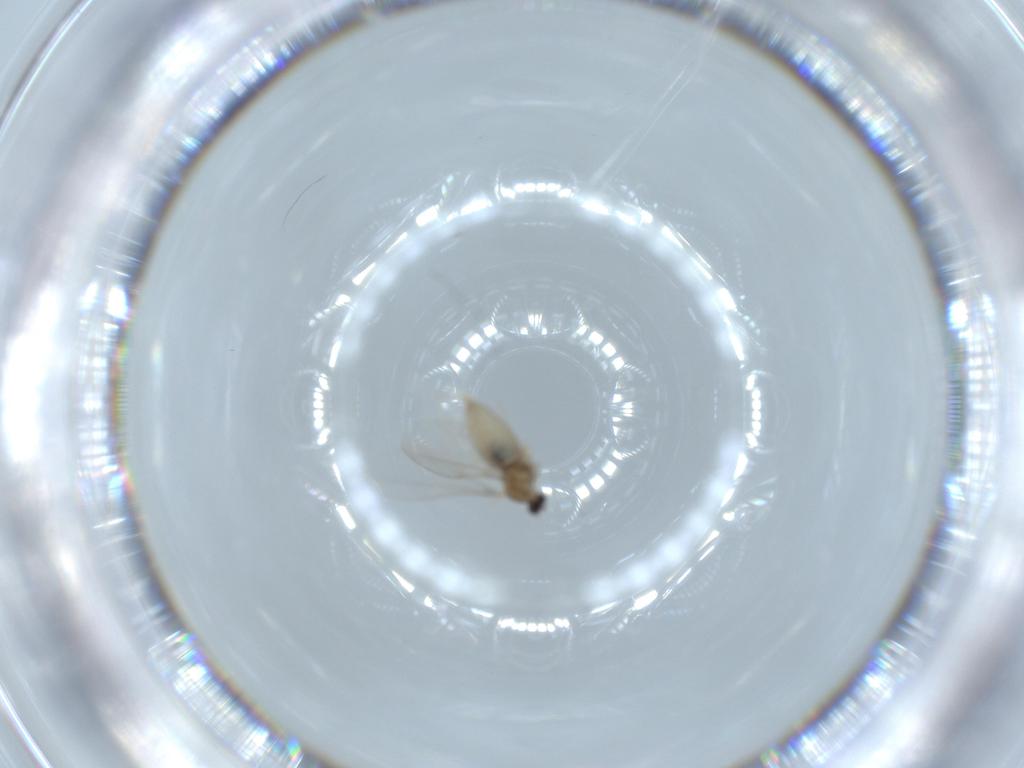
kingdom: Animalia
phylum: Arthropoda
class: Insecta
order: Diptera
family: Cecidomyiidae
